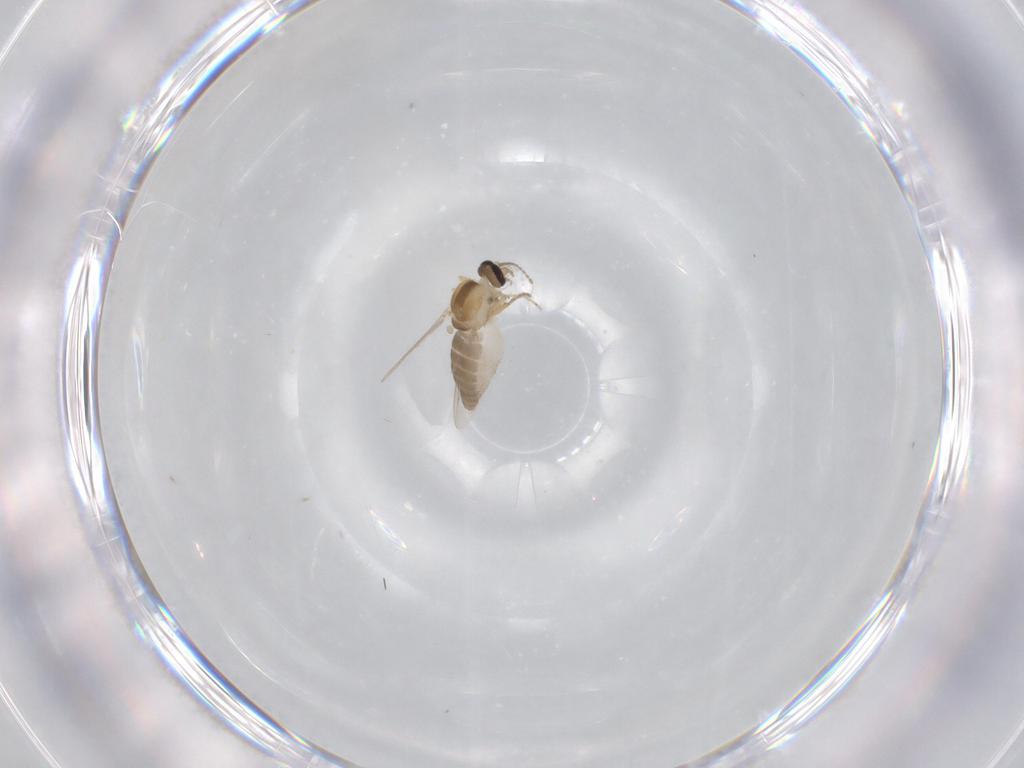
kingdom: Animalia
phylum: Arthropoda
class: Insecta
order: Diptera
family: Ceratopogonidae
